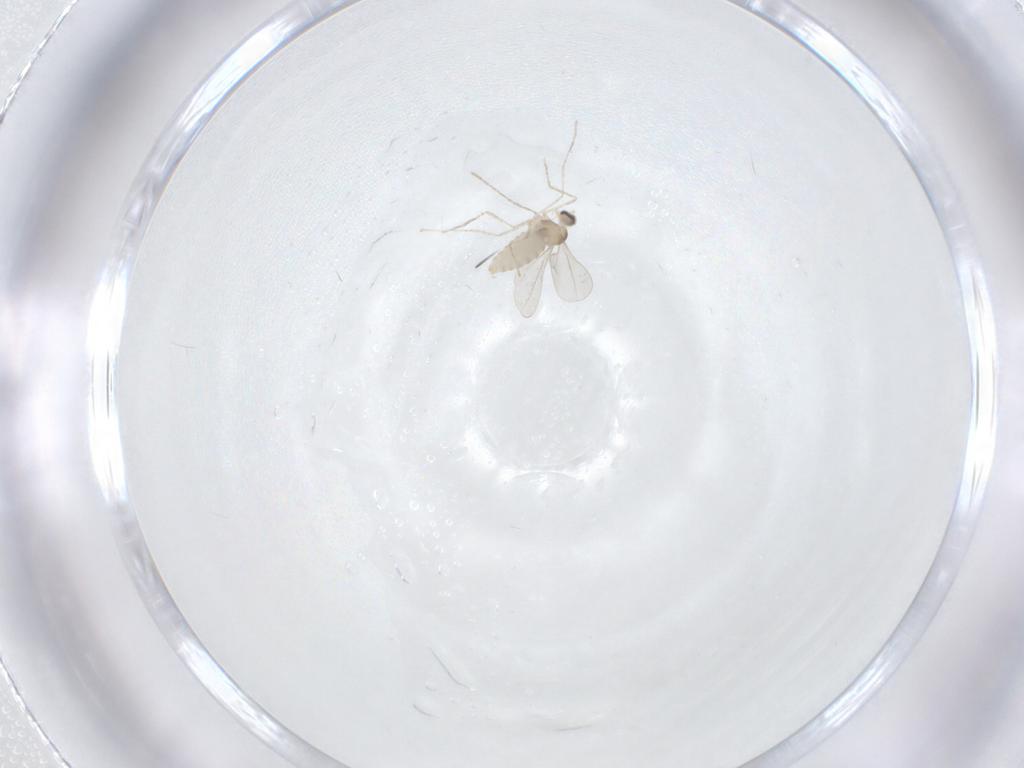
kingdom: Animalia
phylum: Arthropoda
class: Insecta
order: Diptera
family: Cecidomyiidae
